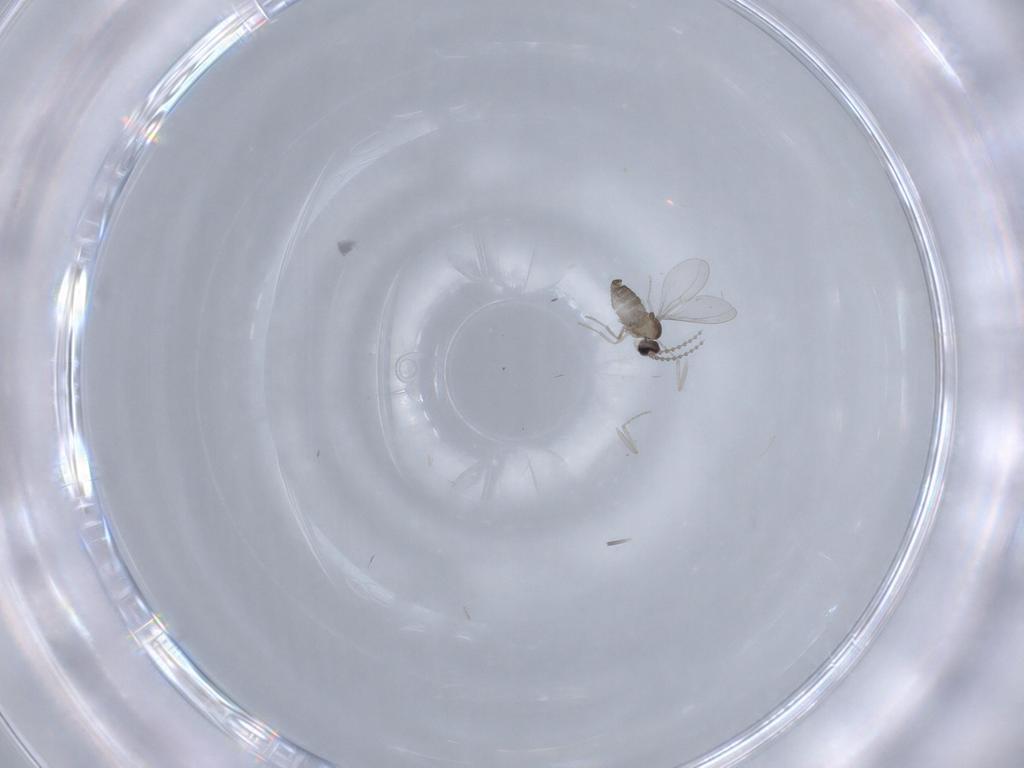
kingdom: Animalia
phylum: Arthropoda
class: Insecta
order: Diptera
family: Cecidomyiidae
